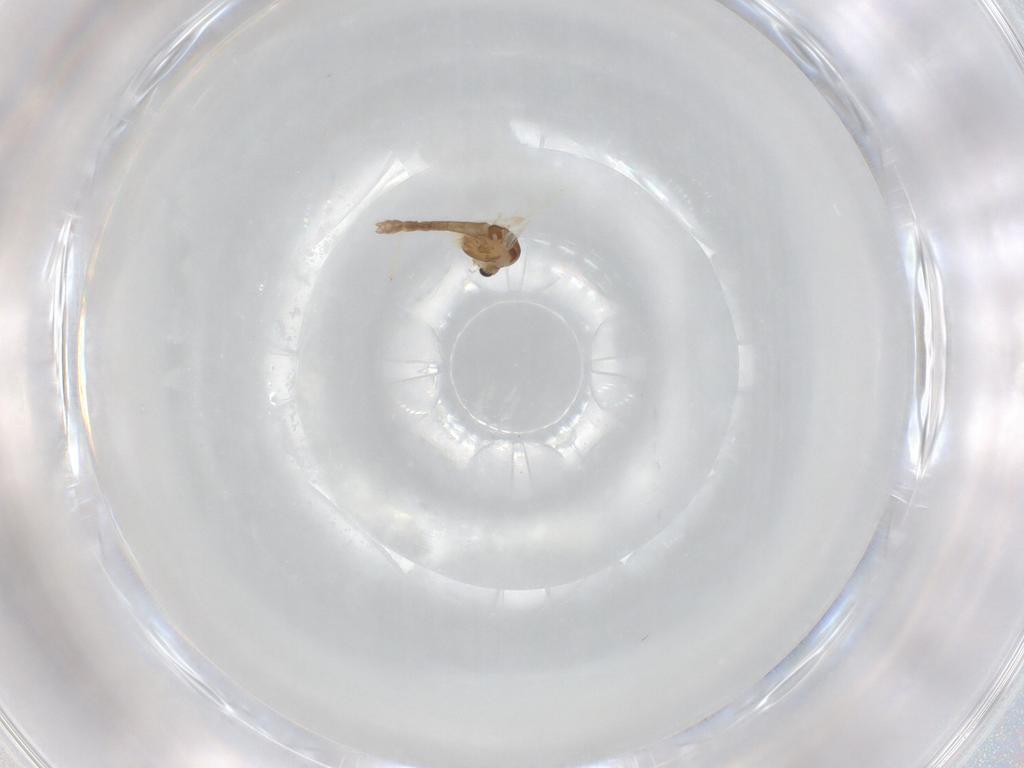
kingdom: Animalia
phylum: Arthropoda
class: Insecta
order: Diptera
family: Chironomidae
